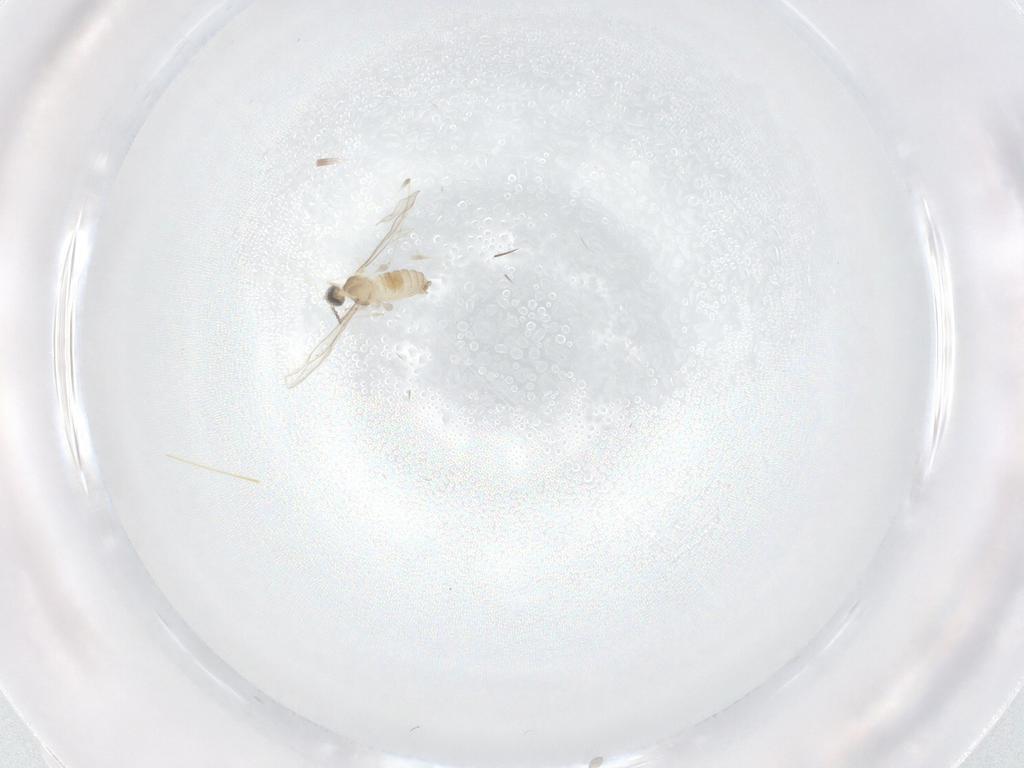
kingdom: Animalia
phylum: Arthropoda
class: Insecta
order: Diptera
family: Cecidomyiidae
